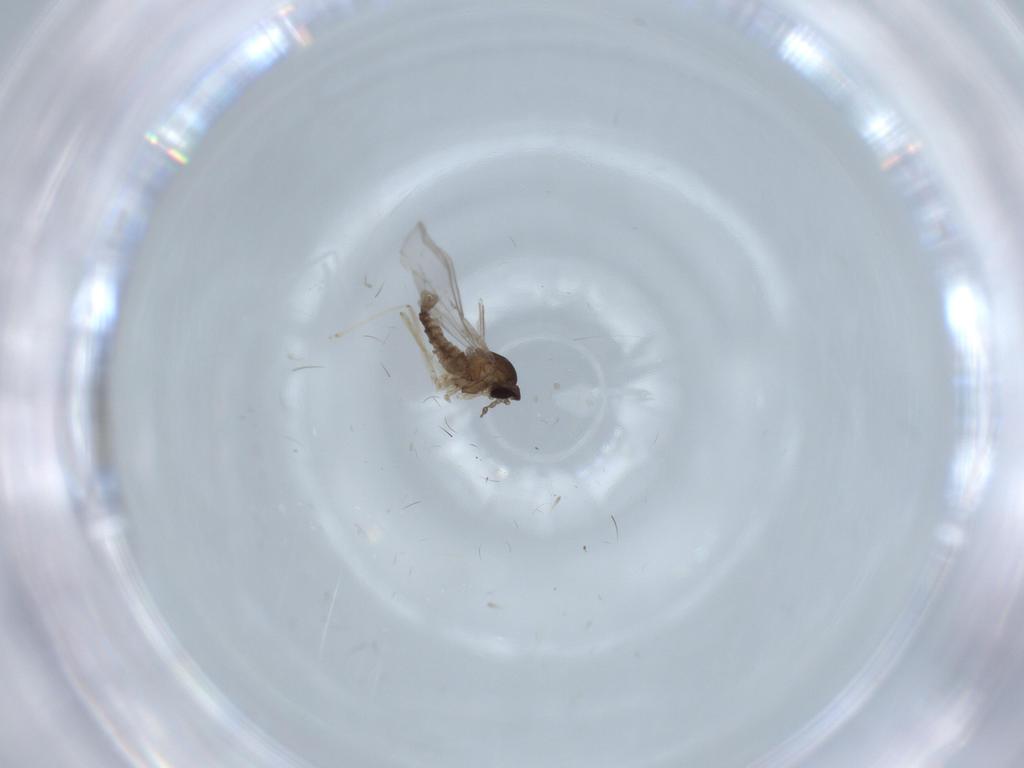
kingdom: Animalia
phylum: Arthropoda
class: Insecta
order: Diptera
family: Cecidomyiidae
